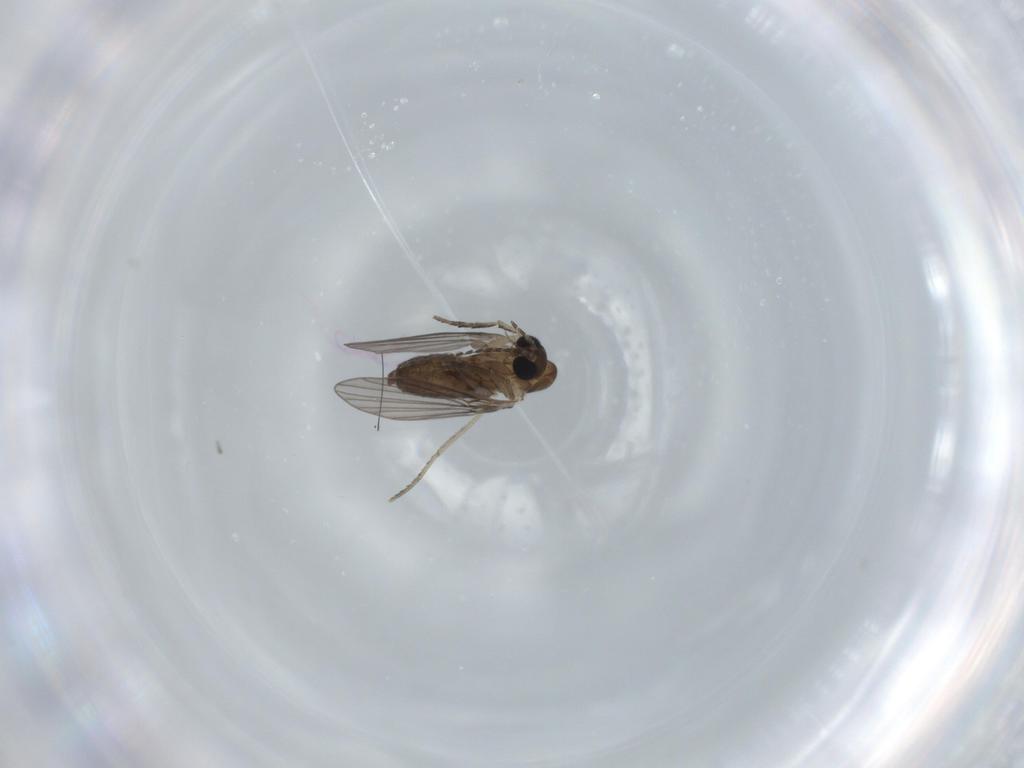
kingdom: Animalia
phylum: Arthropoda
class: Insecta
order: Diptera
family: Psychodidae
